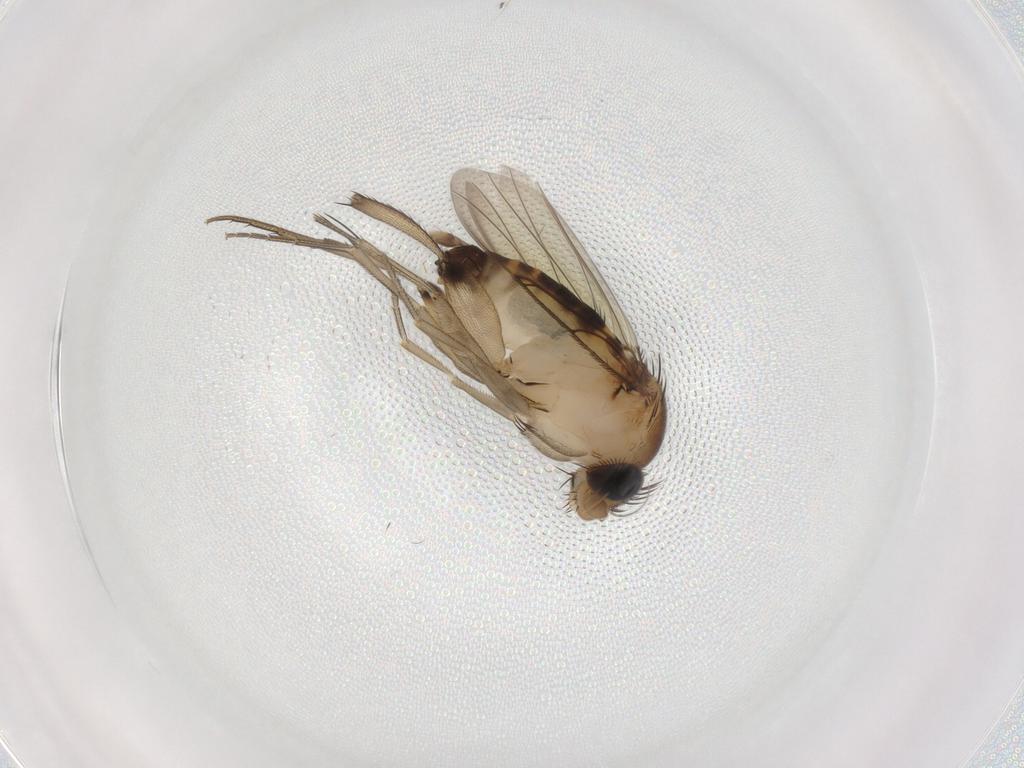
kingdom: Animalia
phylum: Arthropoda
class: Insecta
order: Diptera
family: Phoridae
